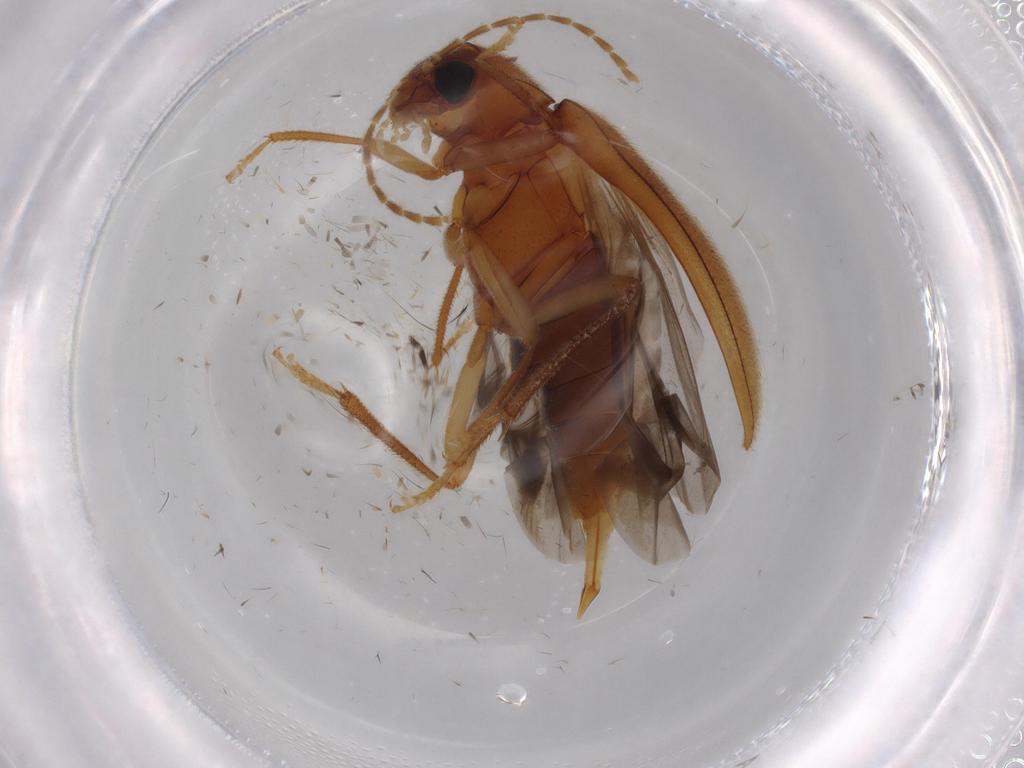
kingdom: Animalia
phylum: Arthropoda
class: Insecta
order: Coleoptera
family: Ptilodactylidae
